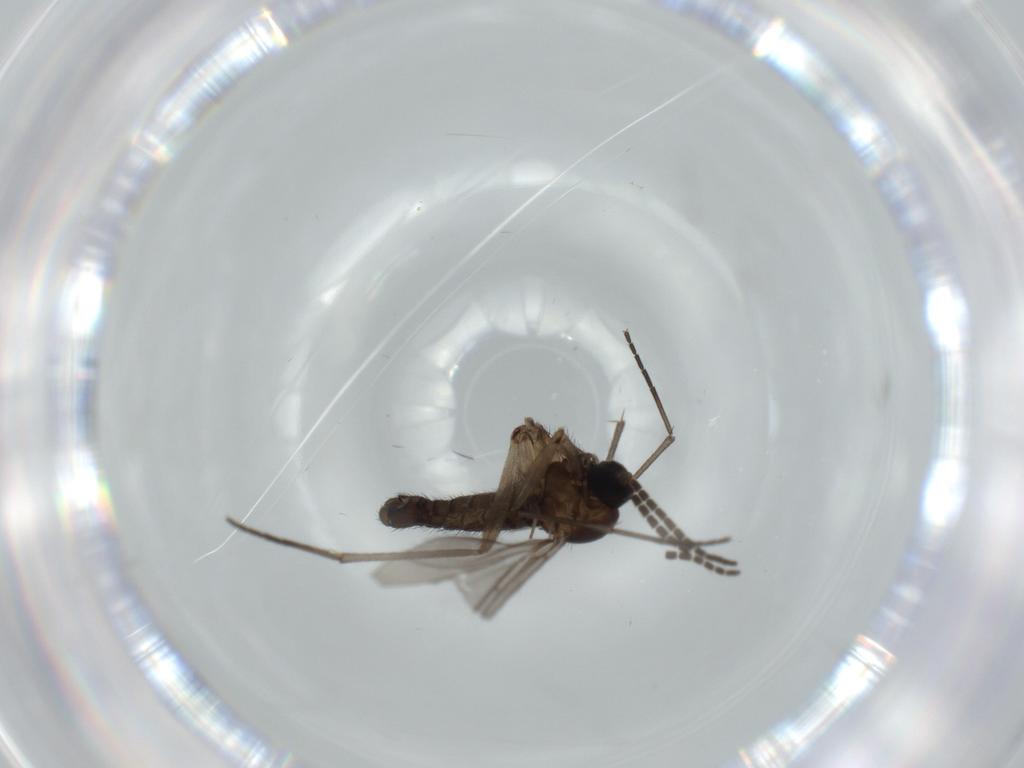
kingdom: Animalia
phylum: Arthropoda
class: Insecta
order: Diptera
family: Sciaridae
